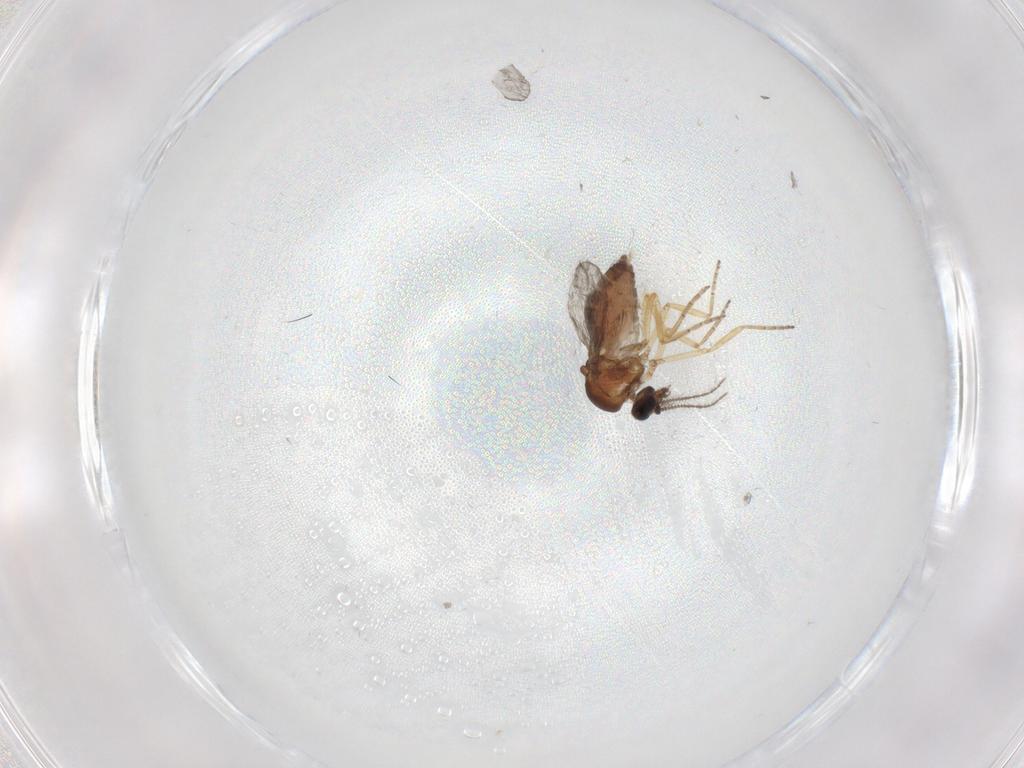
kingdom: Animalia
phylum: Arthropoda
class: Insecta
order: Diptera
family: Ceratopogonidae
